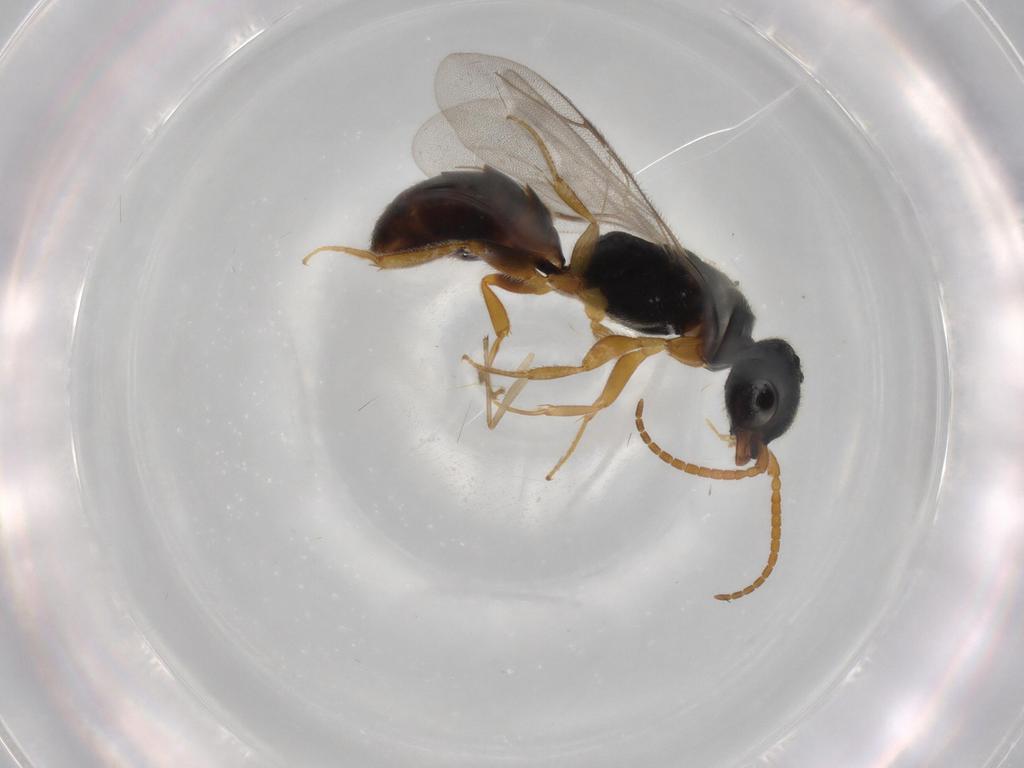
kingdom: Animalia
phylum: Arthropoda
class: Insecta
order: Hymenoptera
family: Bethylidae
